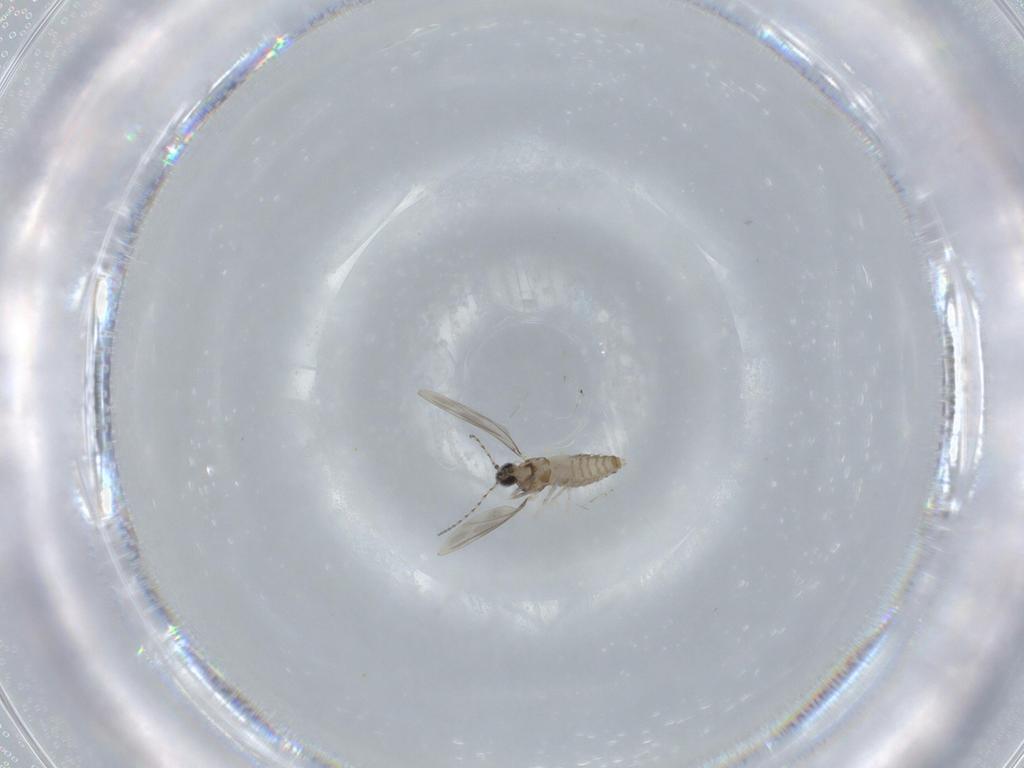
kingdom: Animalia
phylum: Arthropoda
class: Insecta
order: Diptera
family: Cecidomyiidae
